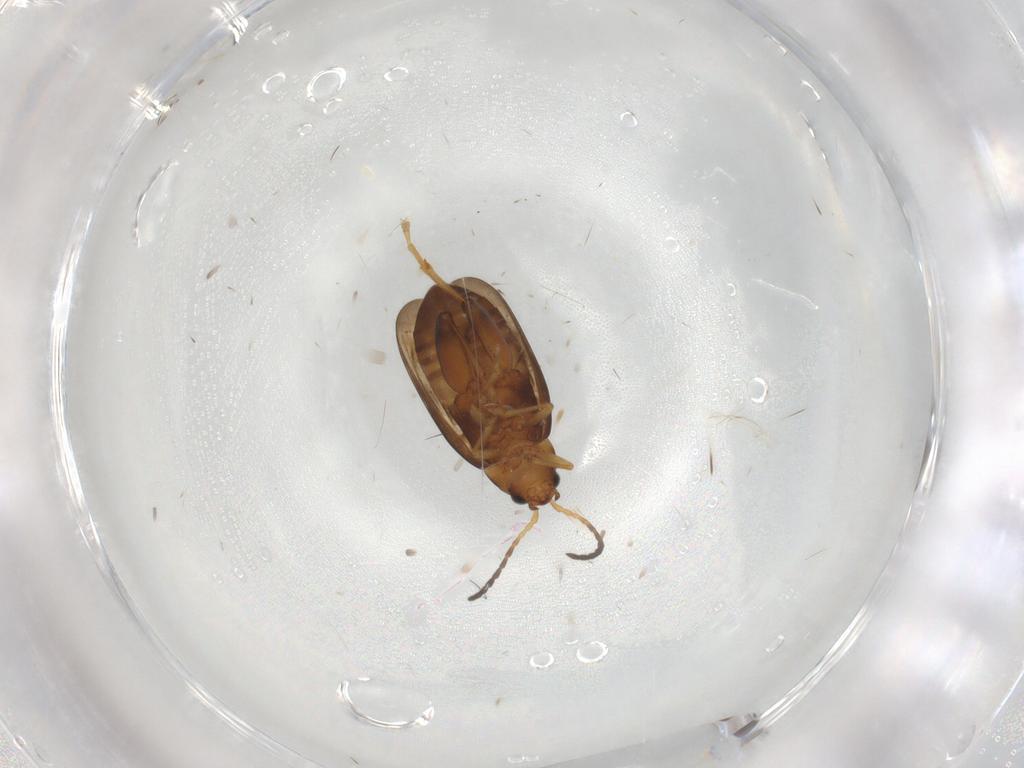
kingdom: Animalia
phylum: Arthropoda
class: Insecta
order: Coleoptera
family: Chrysomelidae
